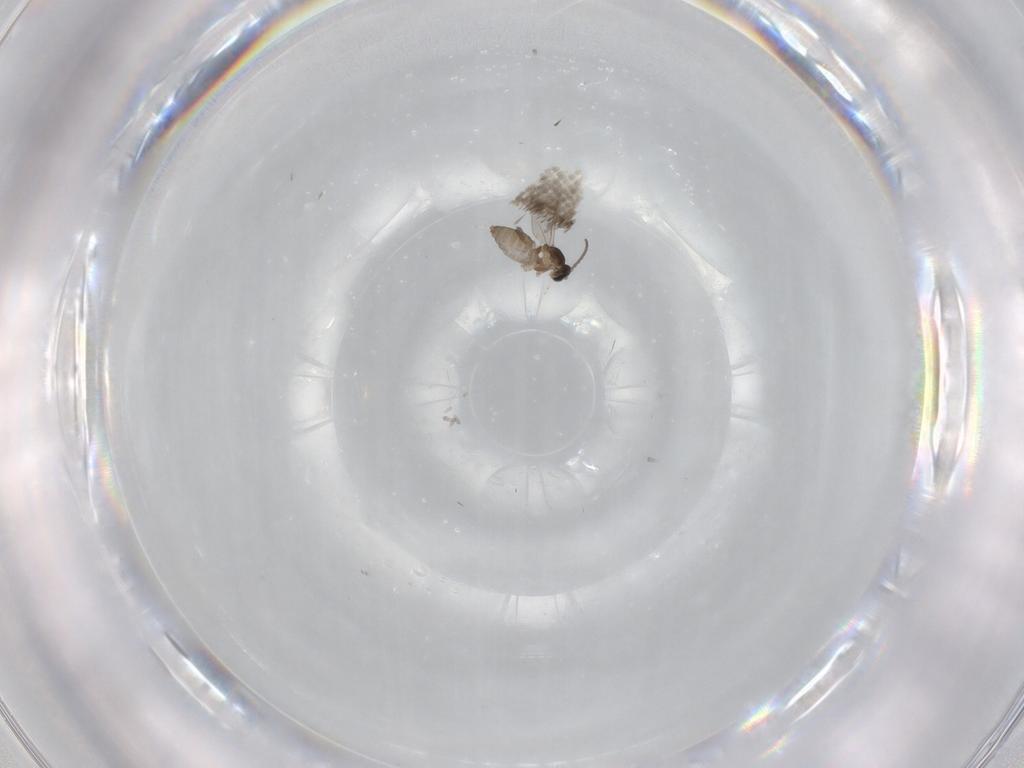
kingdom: Animalia
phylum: Arthropoda
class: Insecta
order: Diptera
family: Cecidomyiidae
